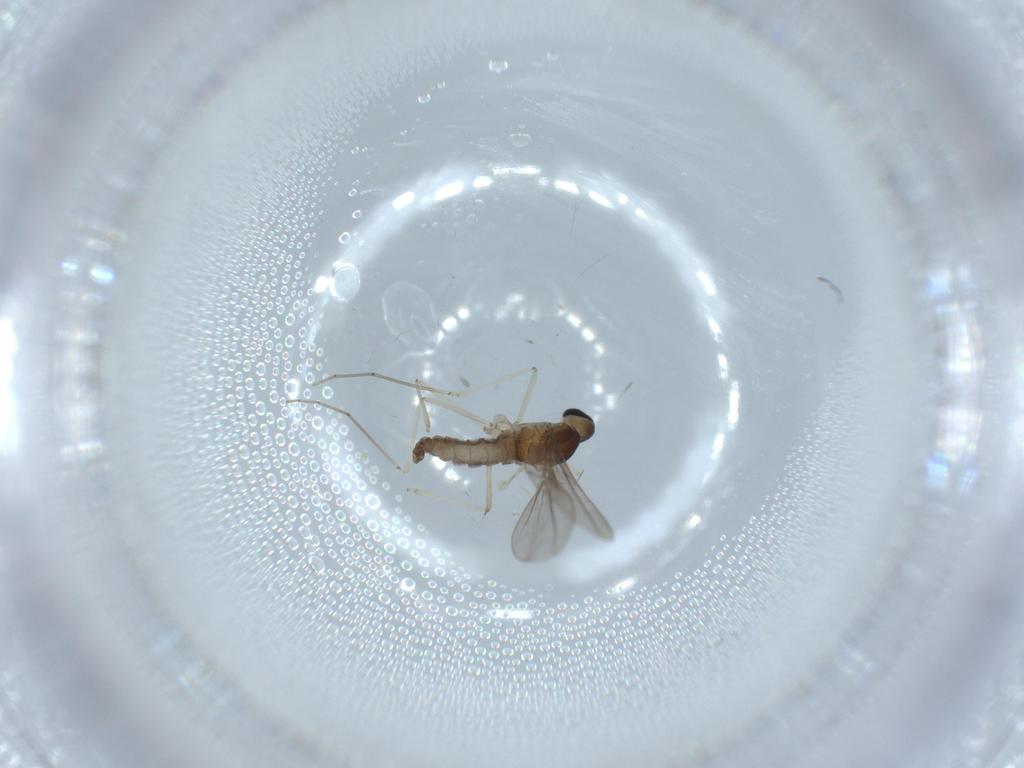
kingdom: Animalia
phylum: Arthropoda
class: Insecta
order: Diptera
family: Cecidomyiidae
